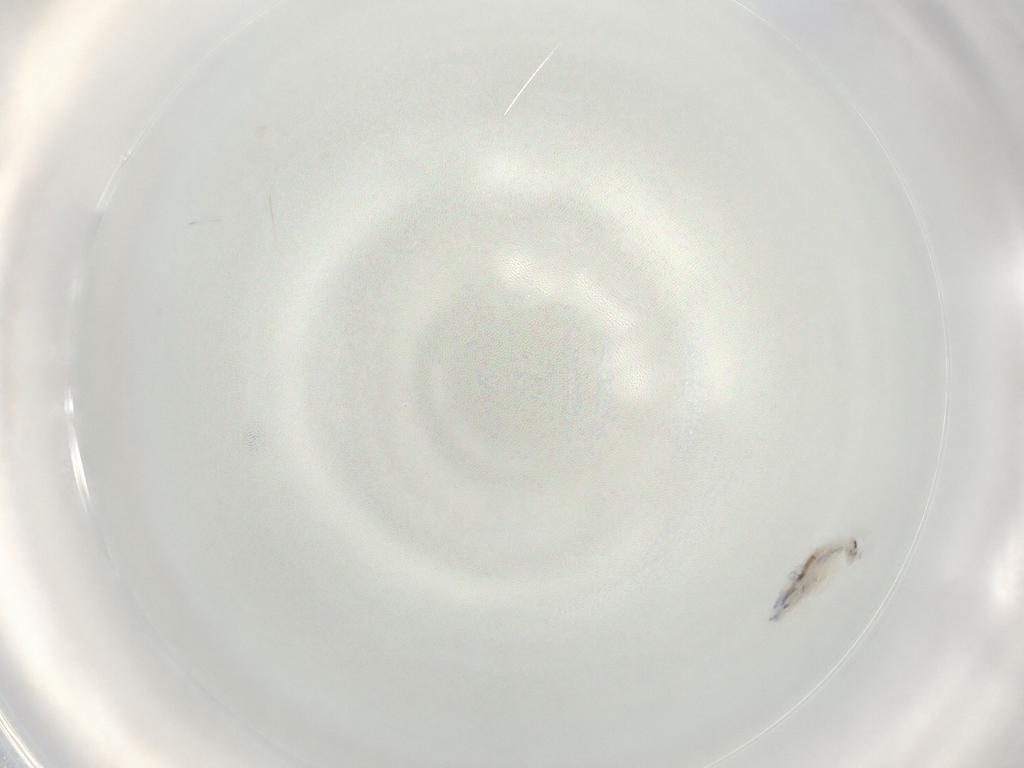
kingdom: Animalia
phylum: Arthropoda
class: Collembola
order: Entomobryomorpha
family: Entomobryidae
